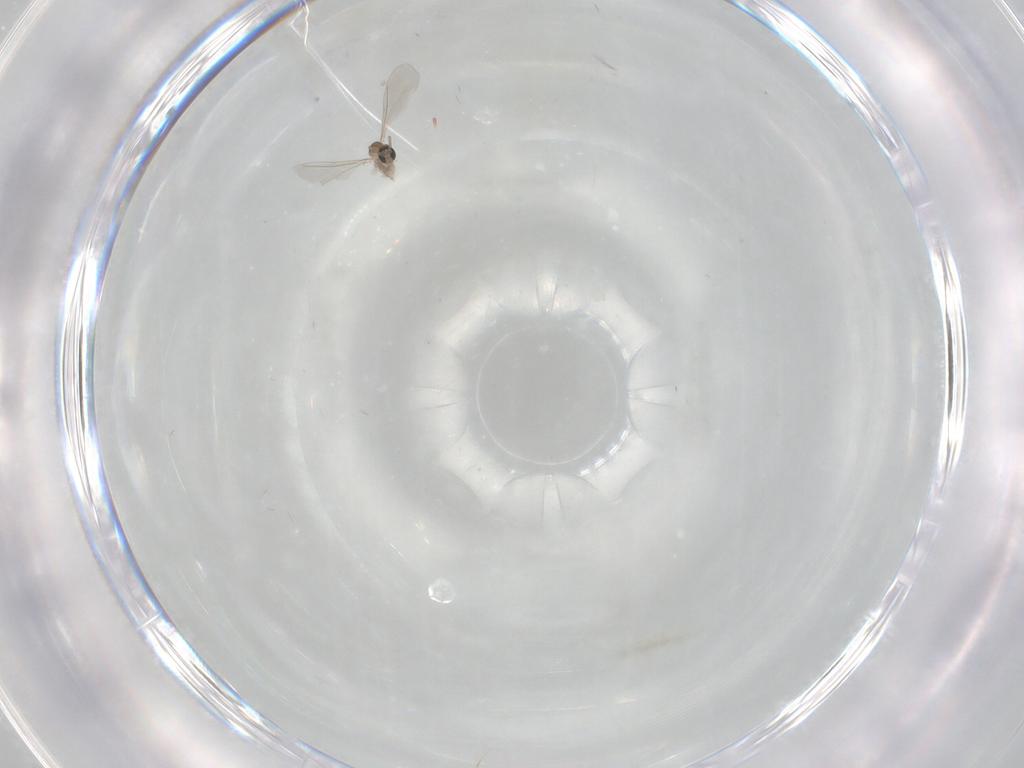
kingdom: Animalia
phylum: Arthropoda
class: Insecta
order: Diptera
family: Cecidomyiidae
